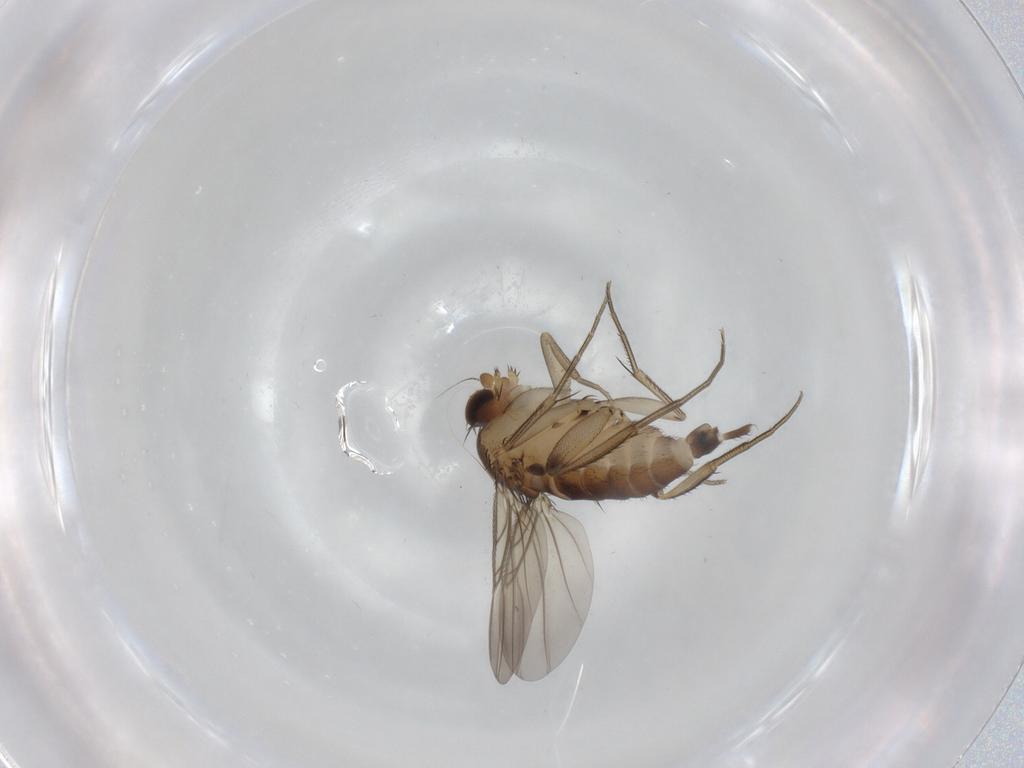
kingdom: Animalia
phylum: Arthropoda
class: Insecta
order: Diptera
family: Phoridae
